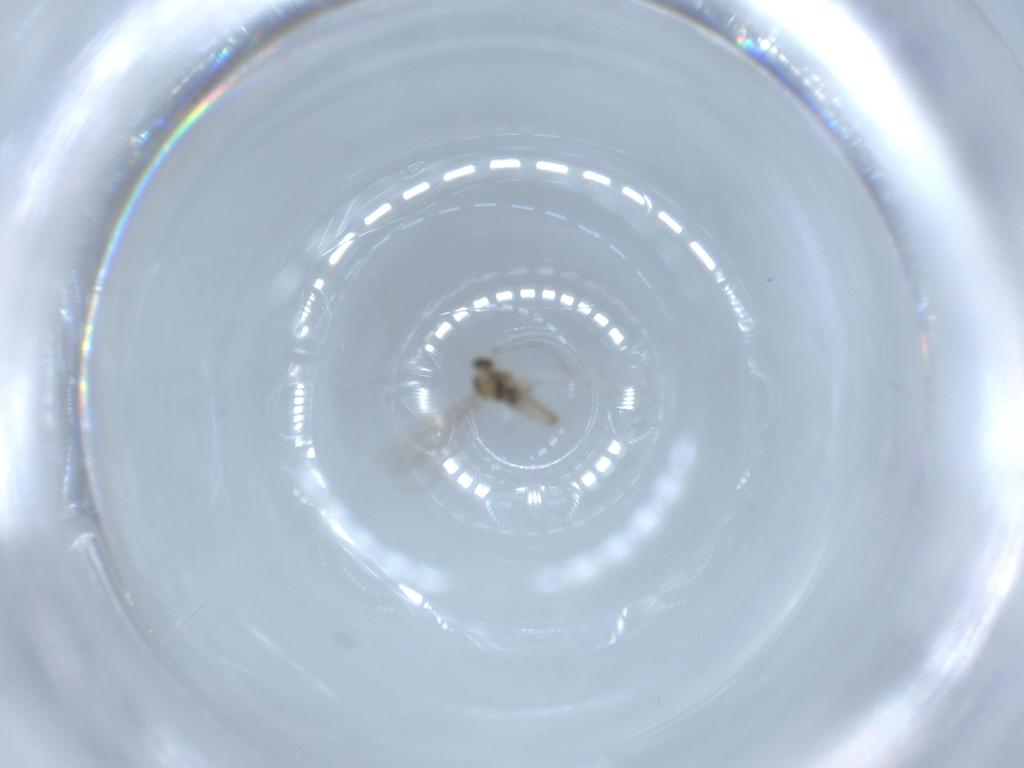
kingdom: Animalia
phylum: Arthropoda
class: Insecta
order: Diptera
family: Cecidomyiidae
